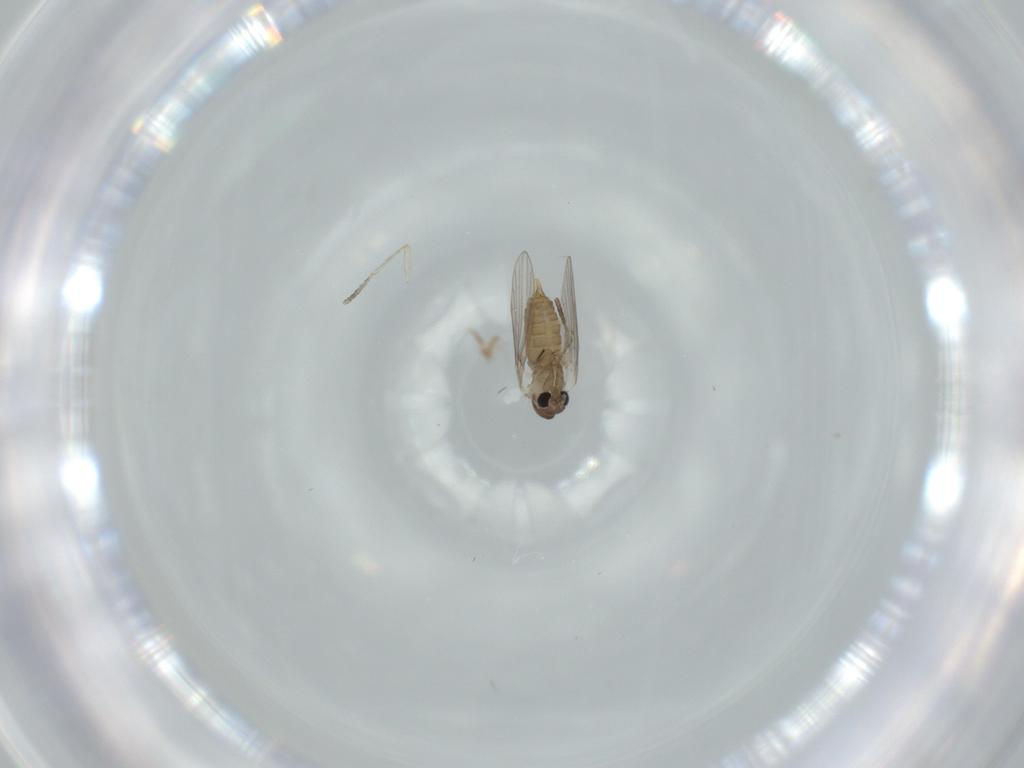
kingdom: Animalia
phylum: Arthropoda
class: Insecta
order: Diptera
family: Psychodidae
